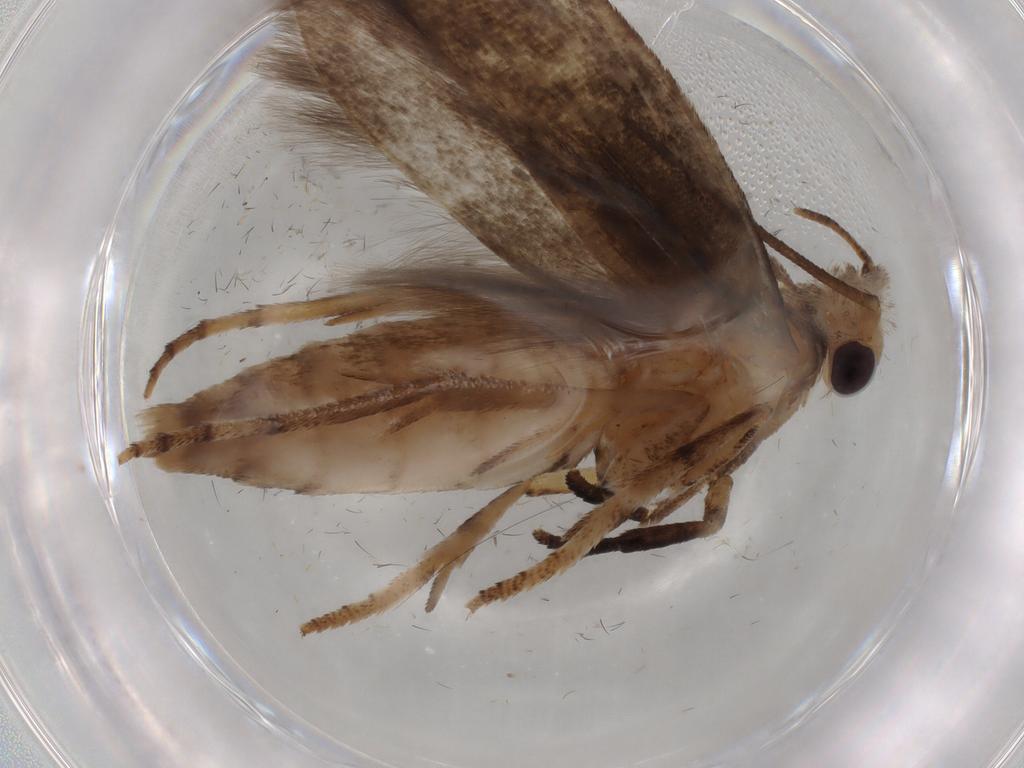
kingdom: Animalia
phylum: Arthropoda
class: Insecta
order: Lepidoptera
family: Yponomeutidae
